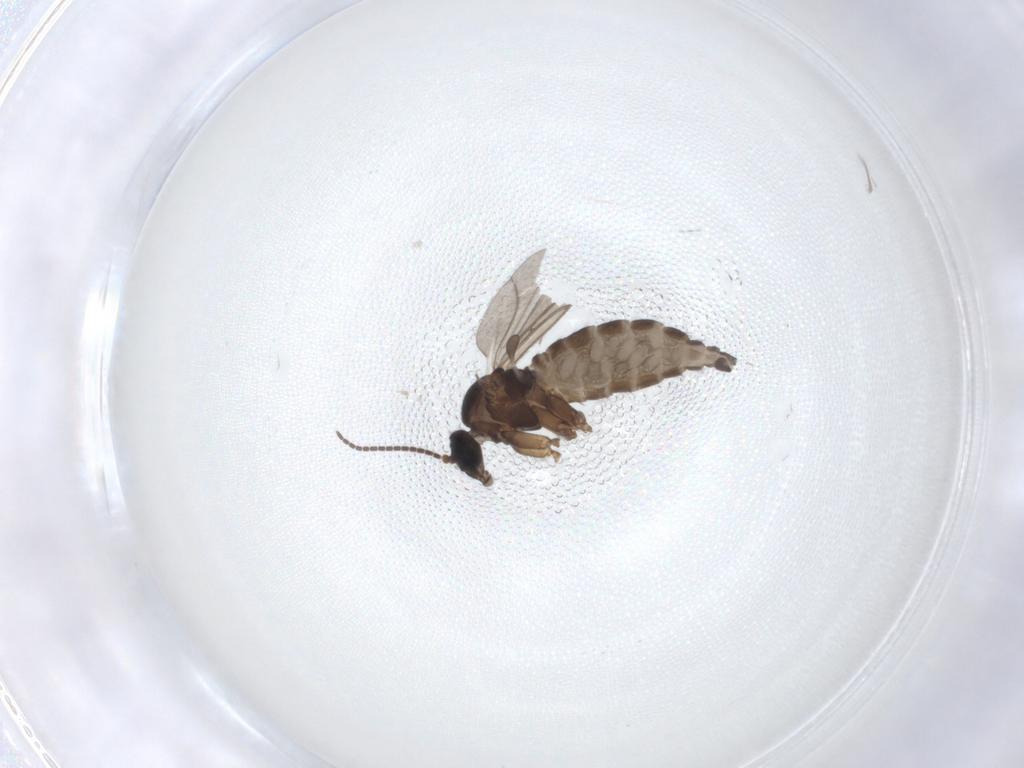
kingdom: Animalia
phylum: Arthropoda
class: Insecta
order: Diptera
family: Sciaridae
